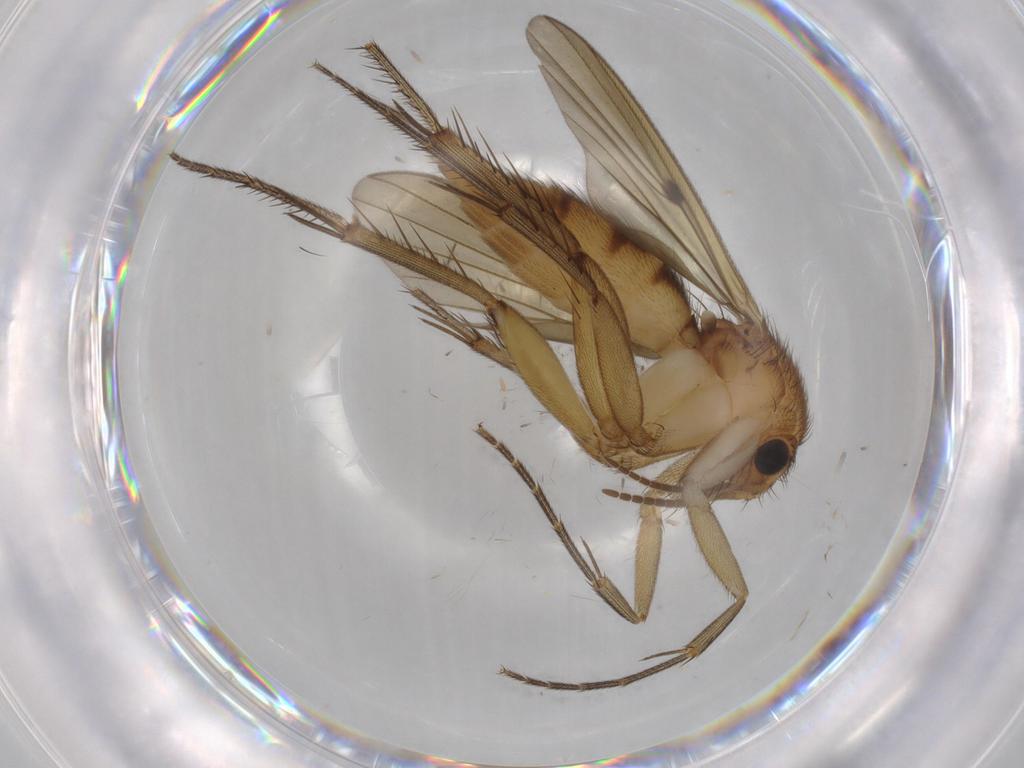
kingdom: Animalia
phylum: Arthropoda
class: Insecta
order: Diptera
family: Mycetophilidae
